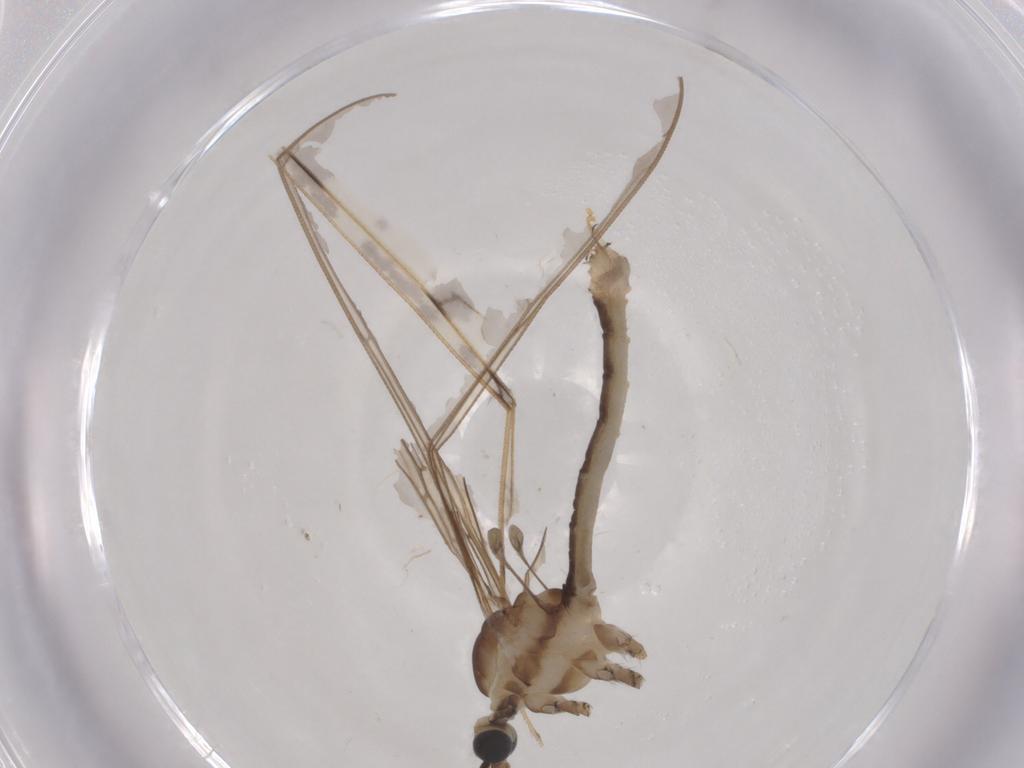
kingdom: Animalia
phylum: Arthropoda
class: Insecta
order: Diptera
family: Limoniidae
